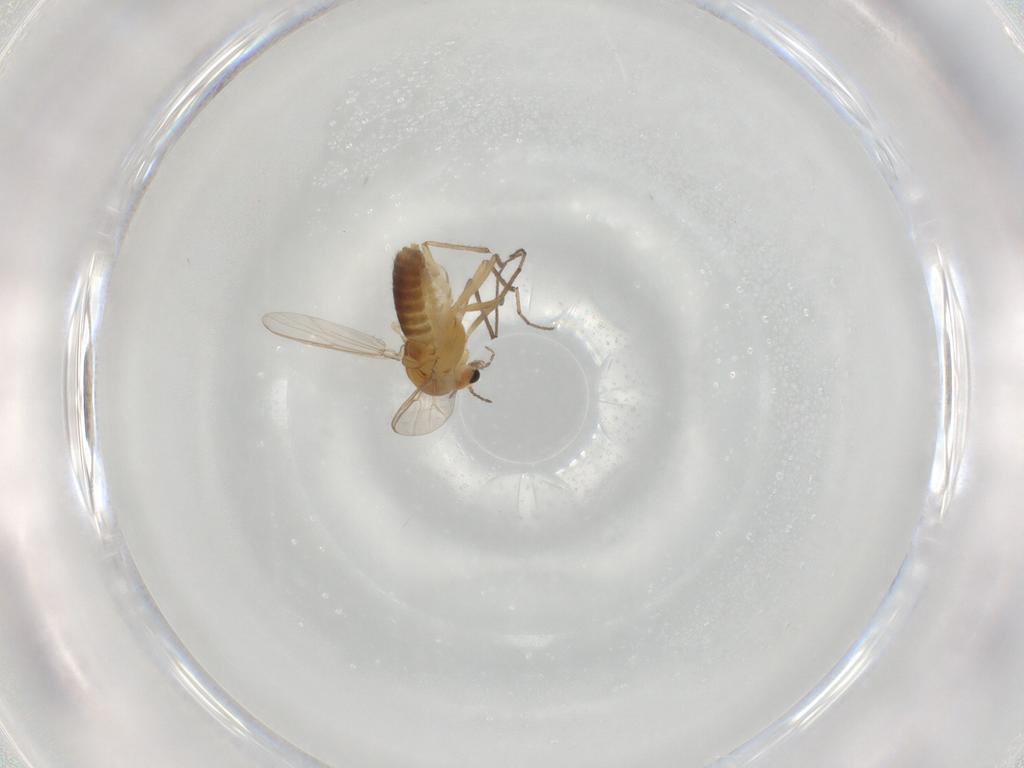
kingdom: Animalia
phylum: Arthropoda
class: Insecta
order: Diptera
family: Chironomidae
